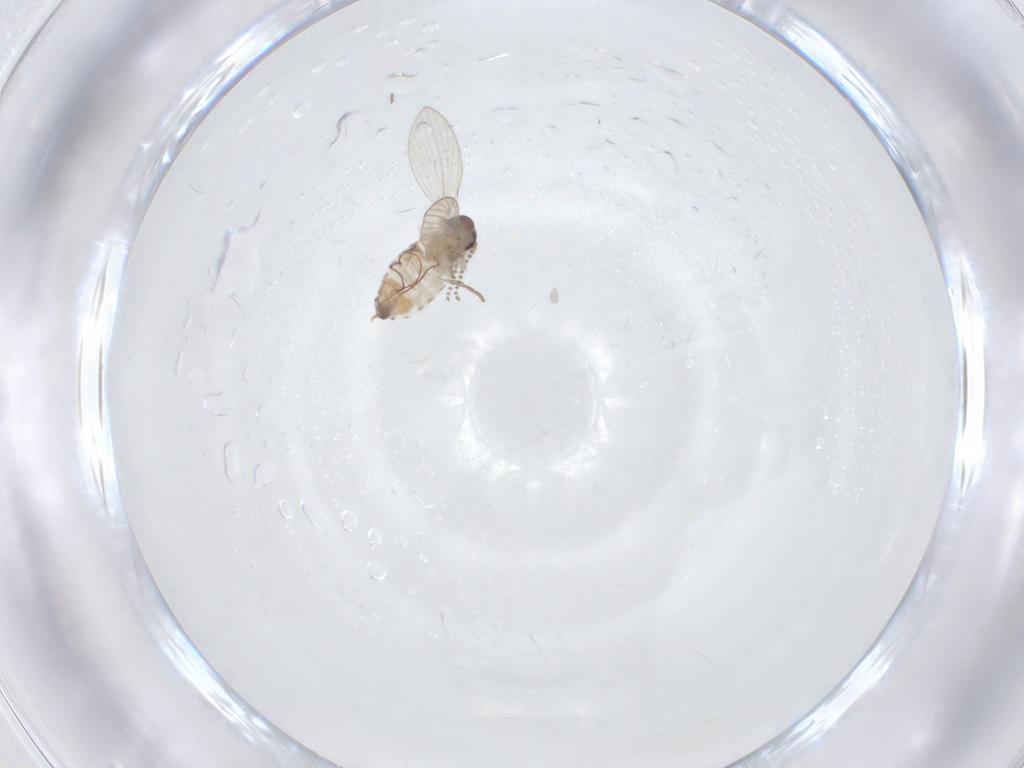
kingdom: Animalia
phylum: Arthropoda
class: Insecta
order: Diptera
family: Psychodidae
